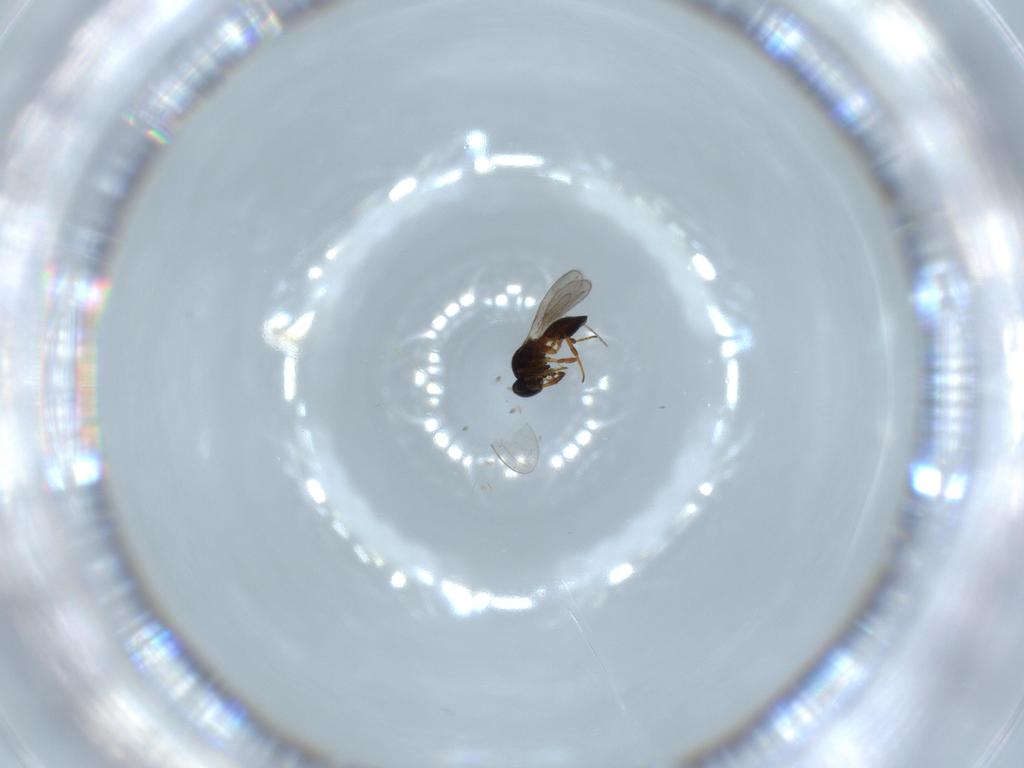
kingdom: Animalia
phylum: Arthropoda
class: Insecta
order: Hymenoptera
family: Platygastridae
